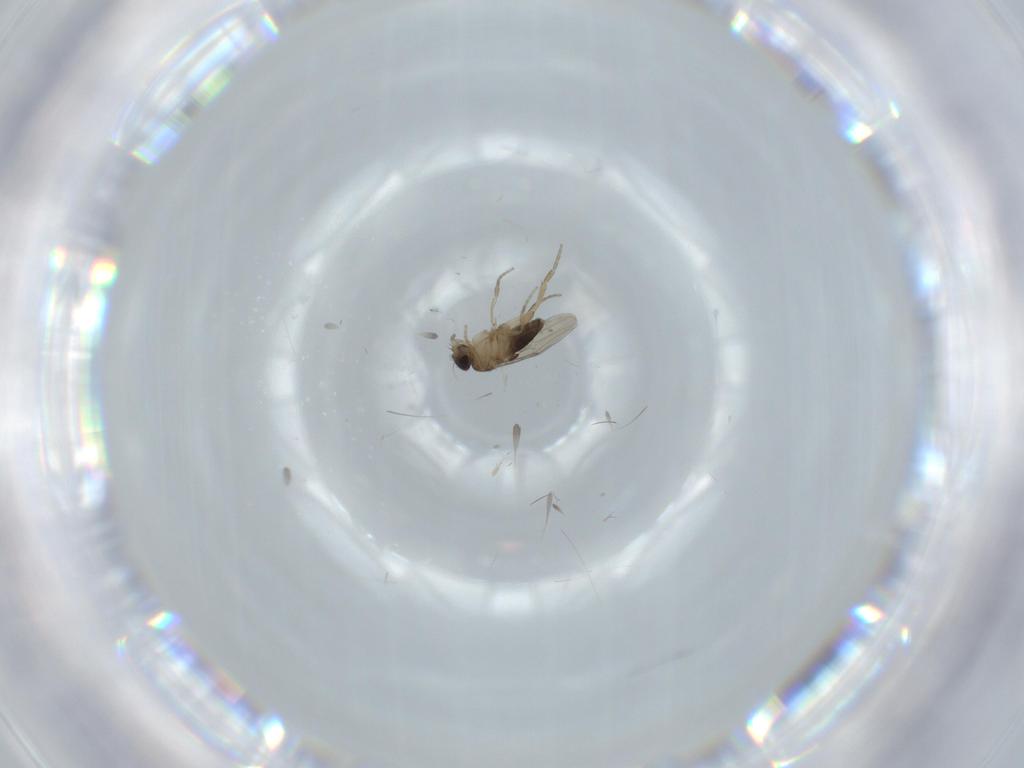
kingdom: Animalia
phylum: Arthropoda
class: Insecta
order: Diptera
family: Phoridae
